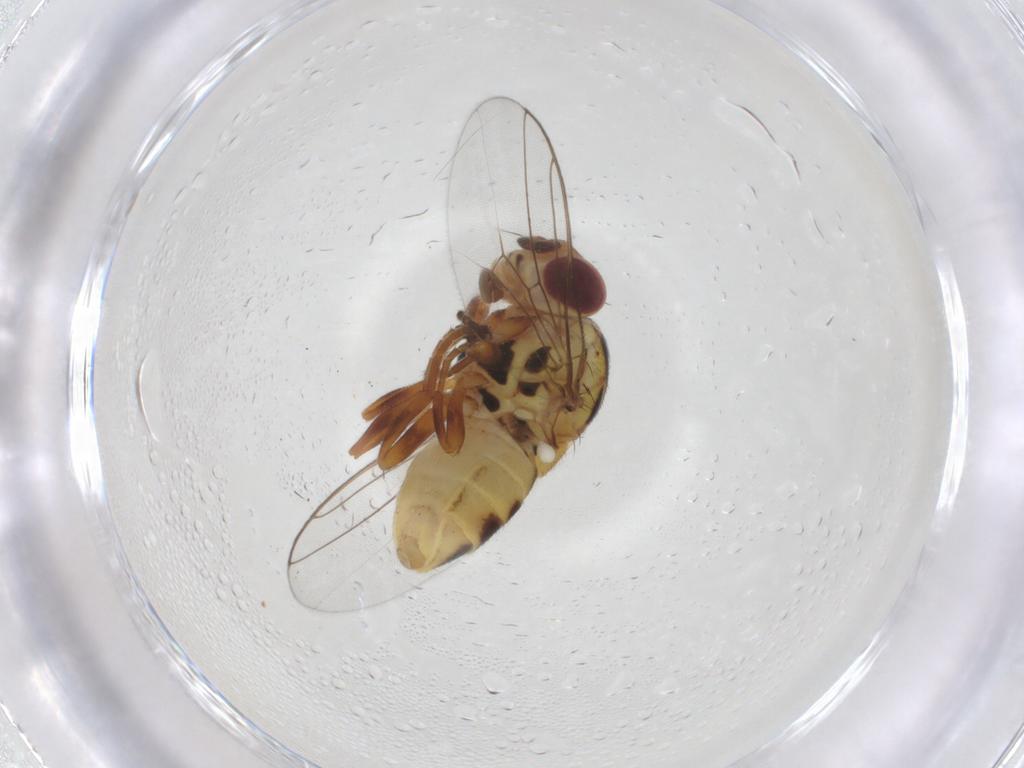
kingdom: Animalia
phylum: Arthropoda
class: Insecta
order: Diptera
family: Chloropidae
